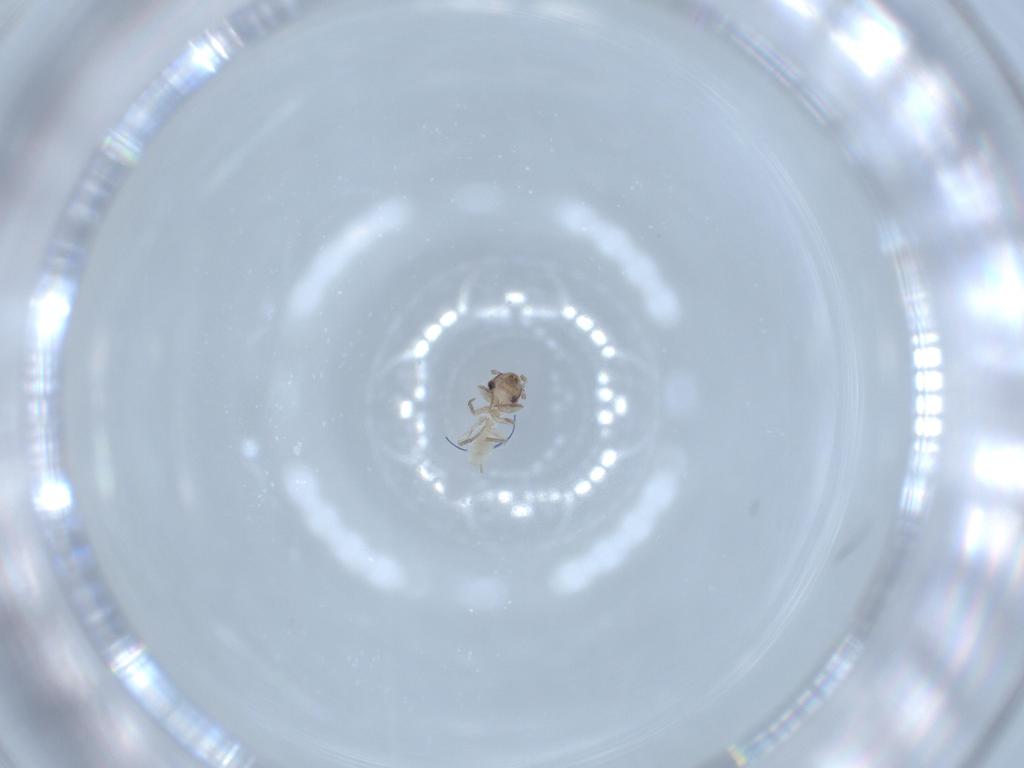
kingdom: Animalia
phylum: Arthropoda
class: Insecta
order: Psocodea
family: Lepidopsocidae
